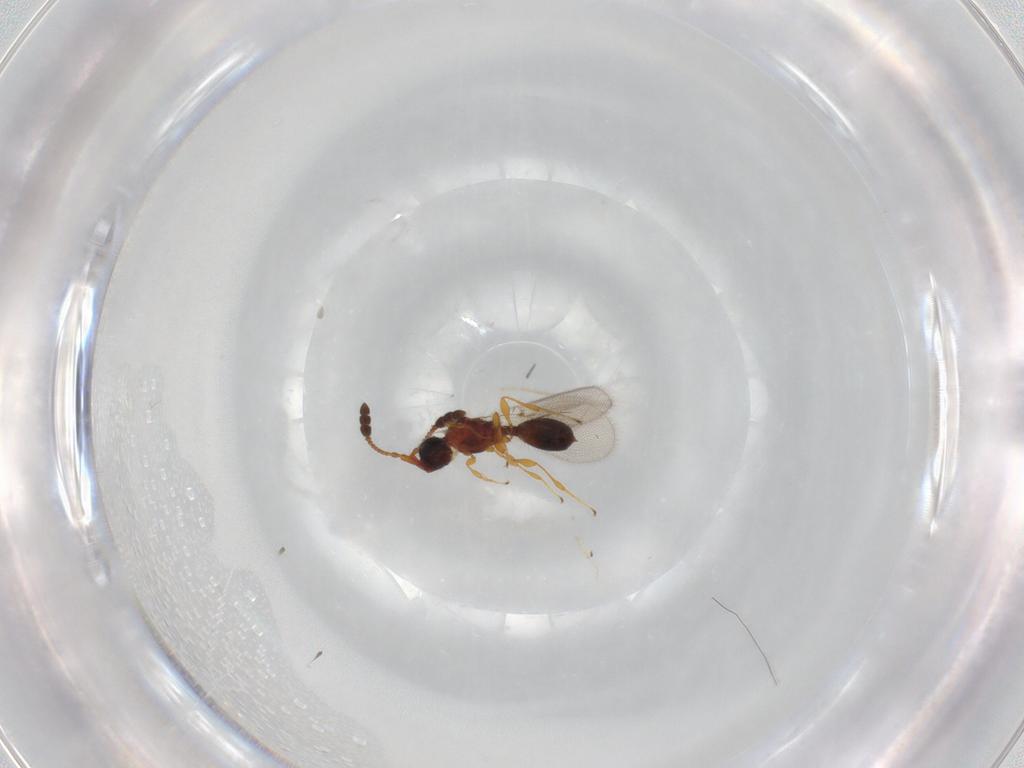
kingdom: Animalia
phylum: Arthropoda
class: Insecta
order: Hymenoptera
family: Diapriidae
